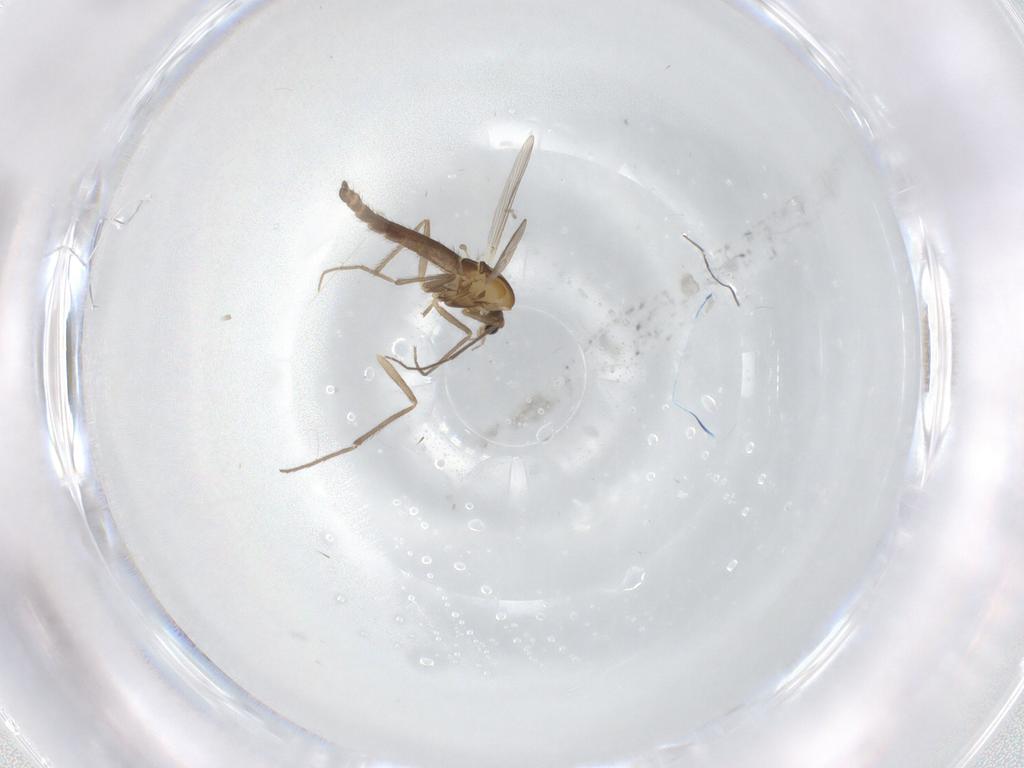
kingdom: Animalia
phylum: Arthropoda
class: Insecta
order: Diptera
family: Chironomidae
